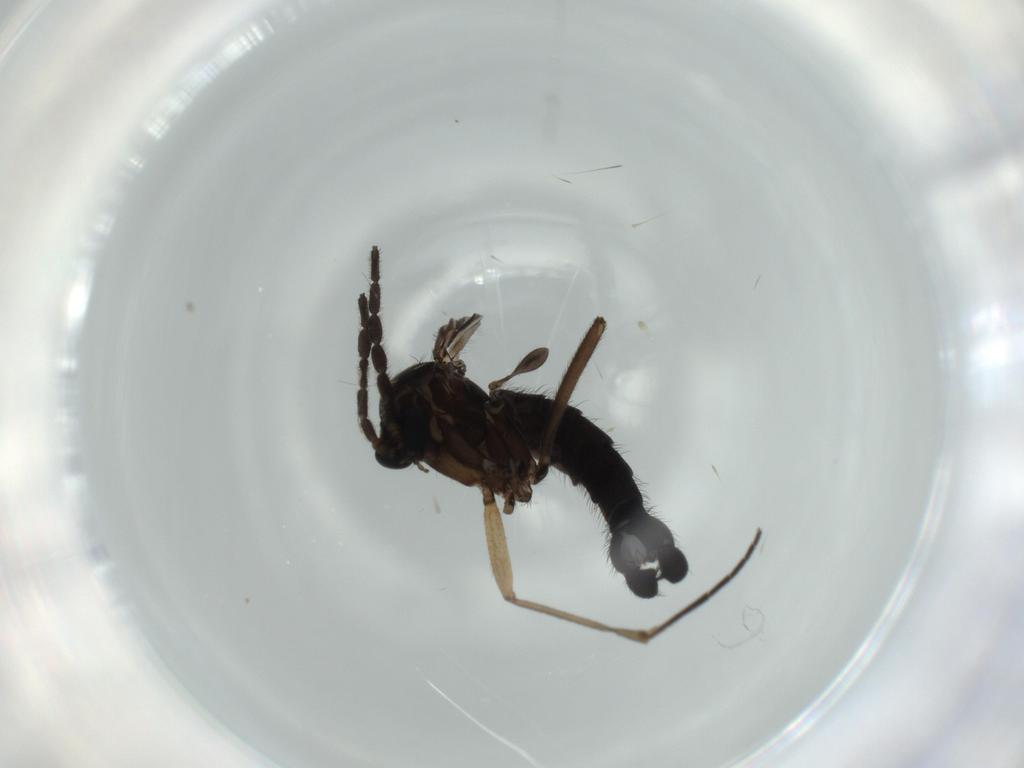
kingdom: Animalia
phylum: Arthropoda
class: Insecta
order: Diptera
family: Sciaridae
